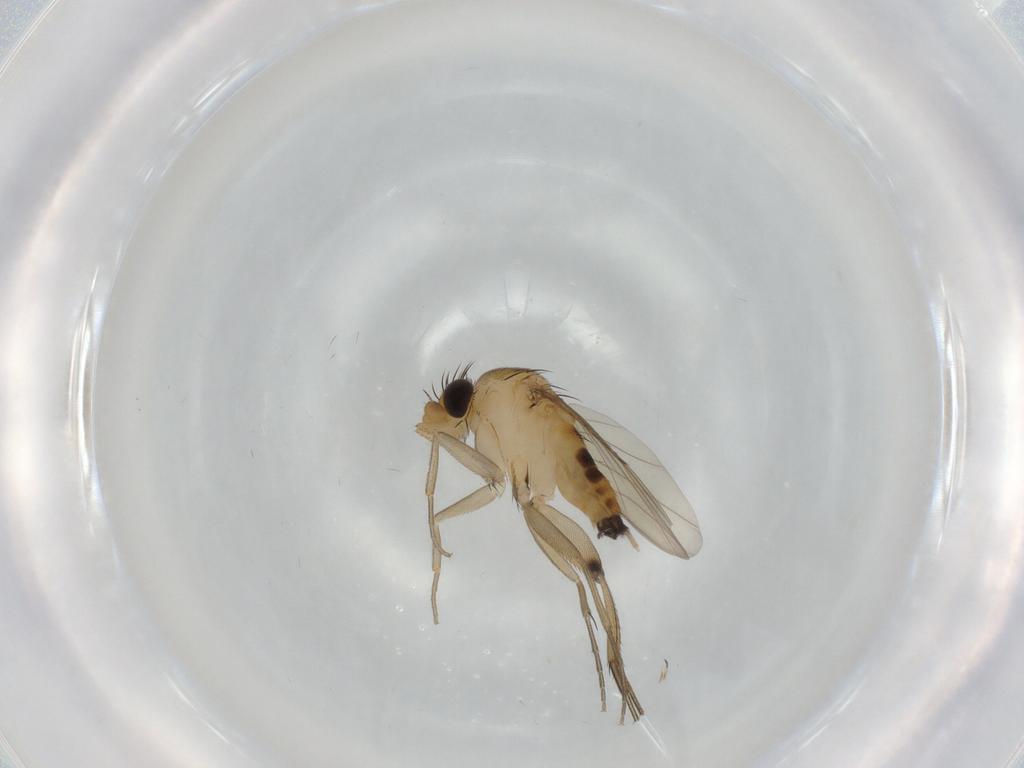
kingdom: Animalia
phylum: Arthropoda
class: Insecta
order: Diptera
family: Phoridae
